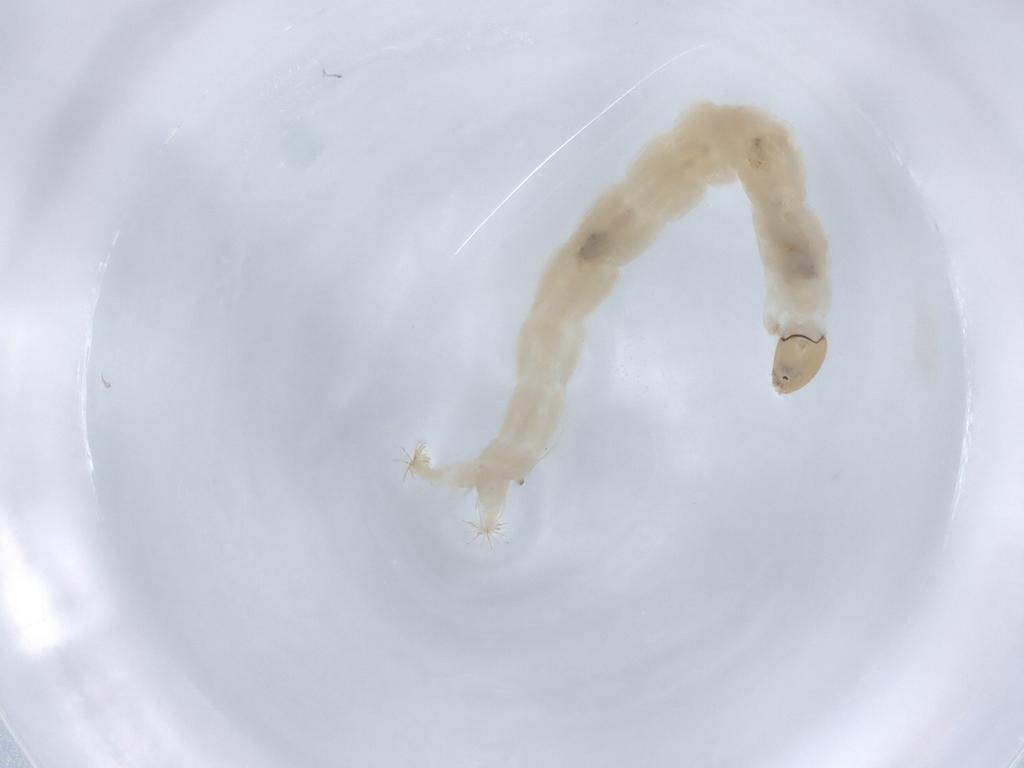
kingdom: Animalia
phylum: Arthropoda
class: Insecta
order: Diptera
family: Chironomidae
